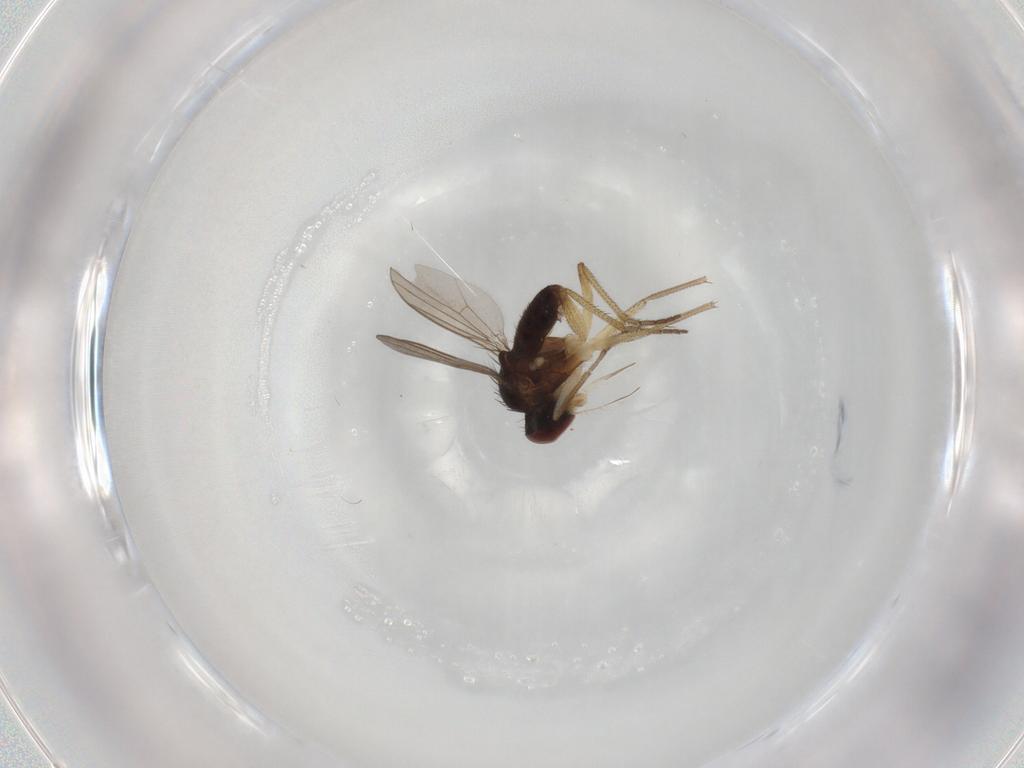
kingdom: Animalia
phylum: Arthropoda
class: Insecta
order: Diptera
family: Dolichopodidae
